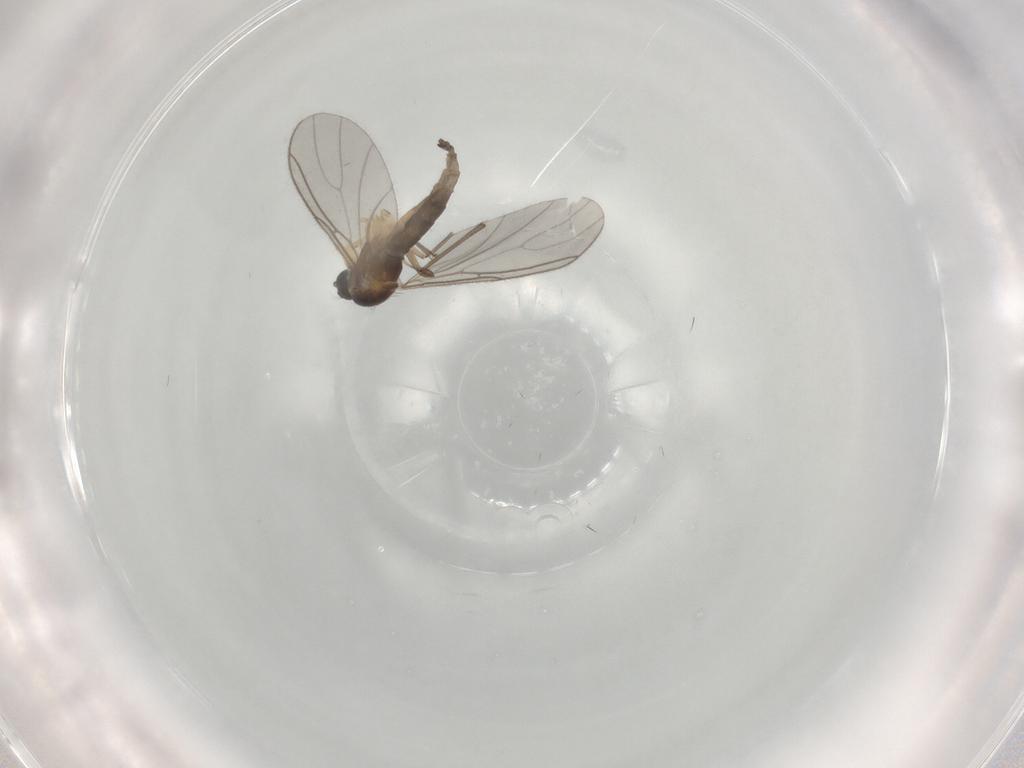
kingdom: Animalia
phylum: Arthropoda
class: Insecta
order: Diptera
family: Sciaridae
